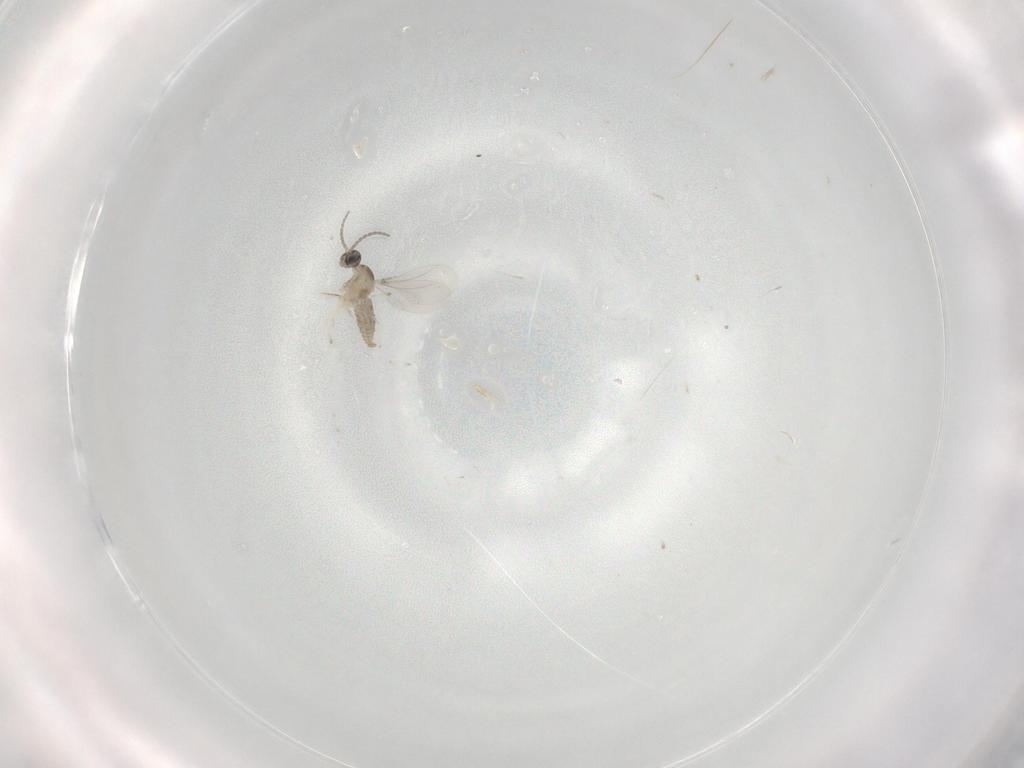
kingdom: Animalia
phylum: Arthropoda
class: Insecta
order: Diptera
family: Cecidomyiidae
